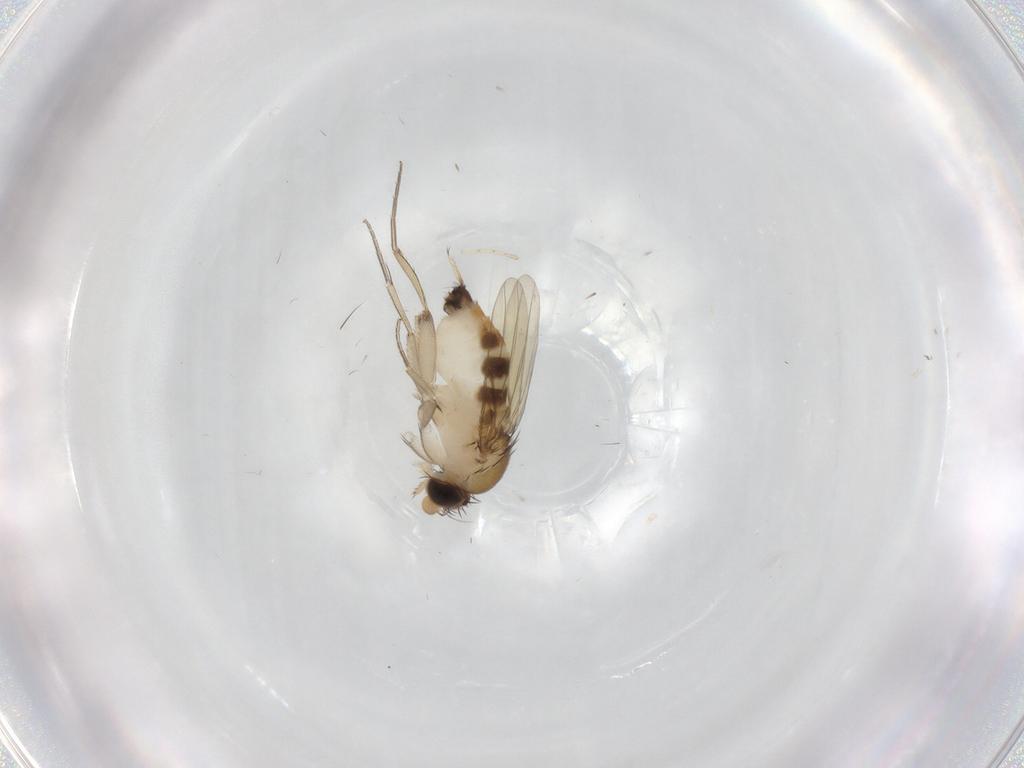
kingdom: Animalia
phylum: Arthropoda
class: Insecta
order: Diptera
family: Phoridae
